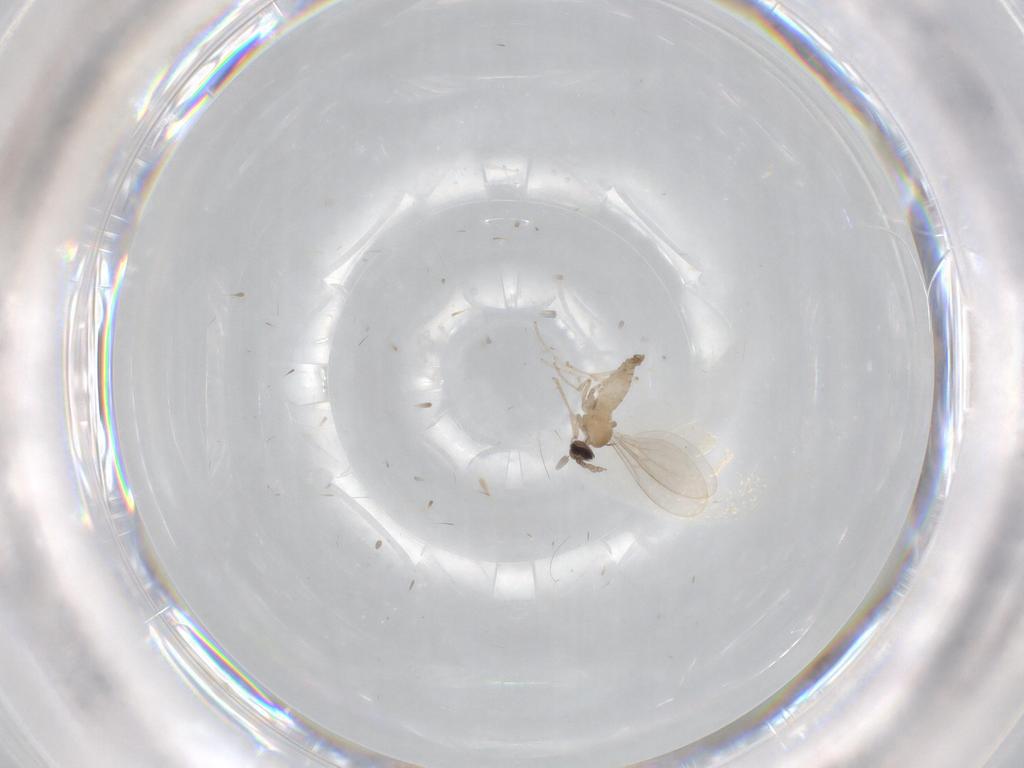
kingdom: Animalia
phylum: Arthropoda
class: Insecta
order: Diptera
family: Cecidomyiidae
